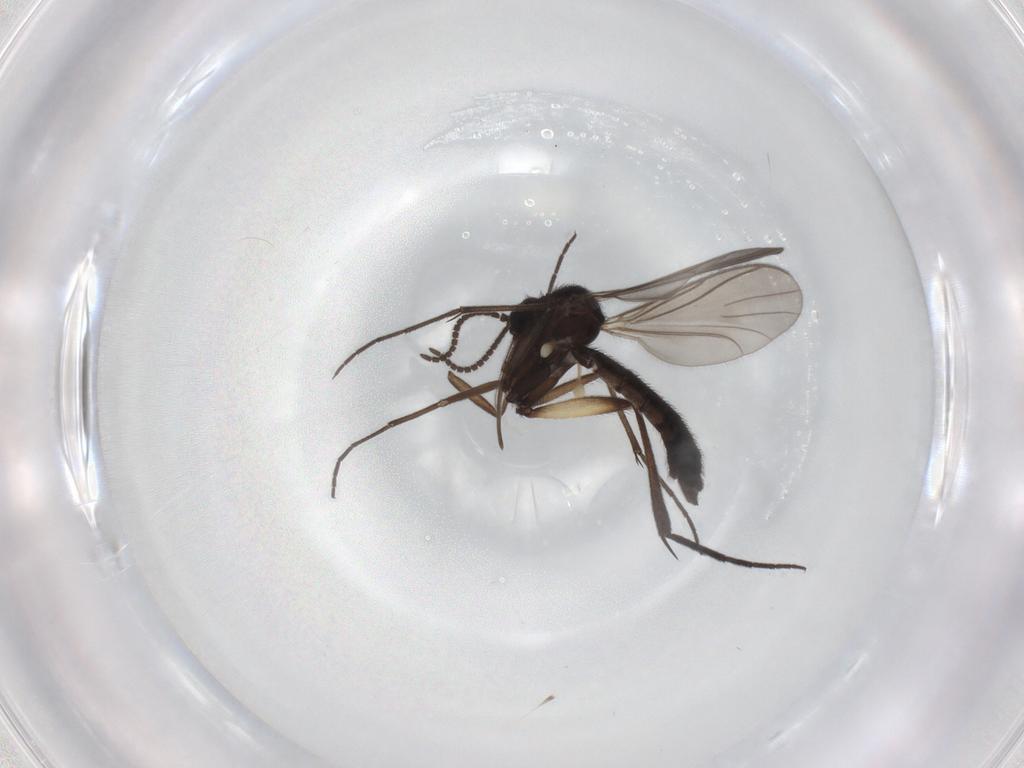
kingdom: Animalia
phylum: Arthropoda
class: Insecta
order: Diptera
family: Keroplatidae
